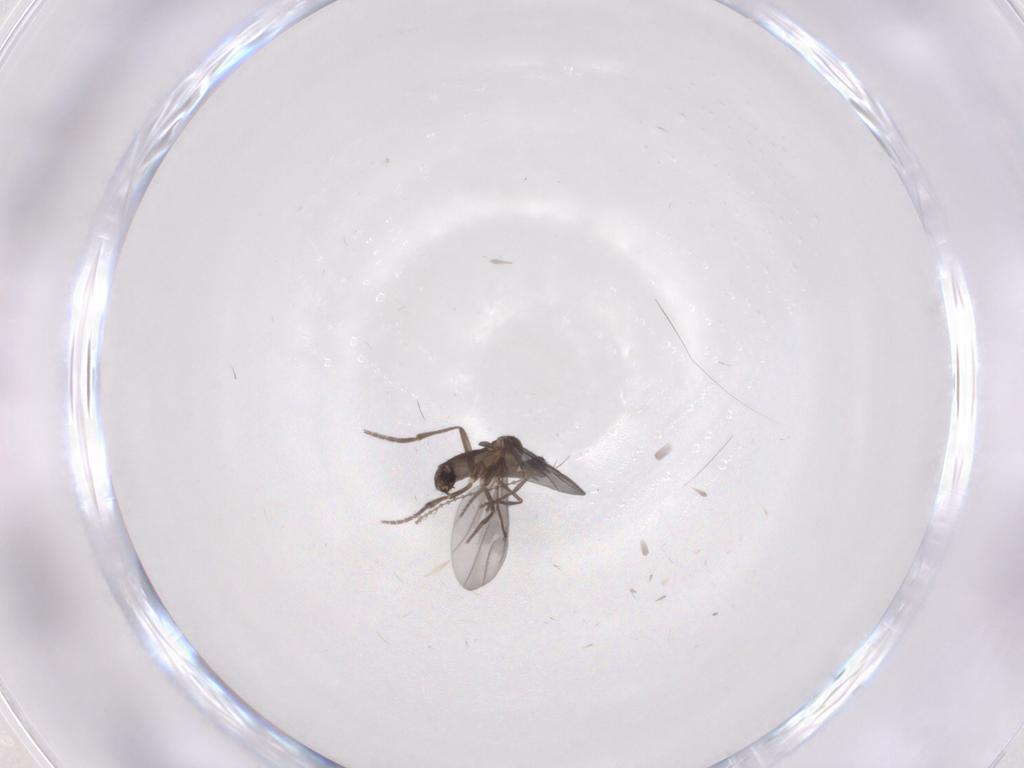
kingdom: Animalia
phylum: Arthropoda
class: Insecta
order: Diptera
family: Phoridae
